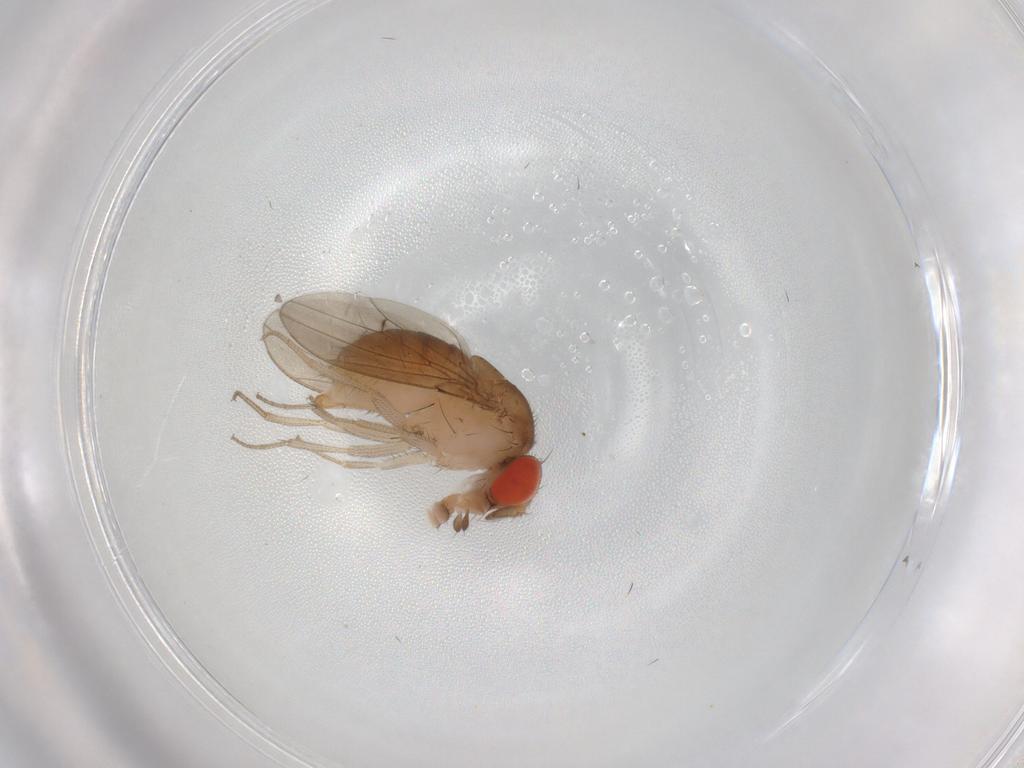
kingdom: Animalia
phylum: Arthropoda
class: Insecta
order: Diptera
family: Drosophilidae
